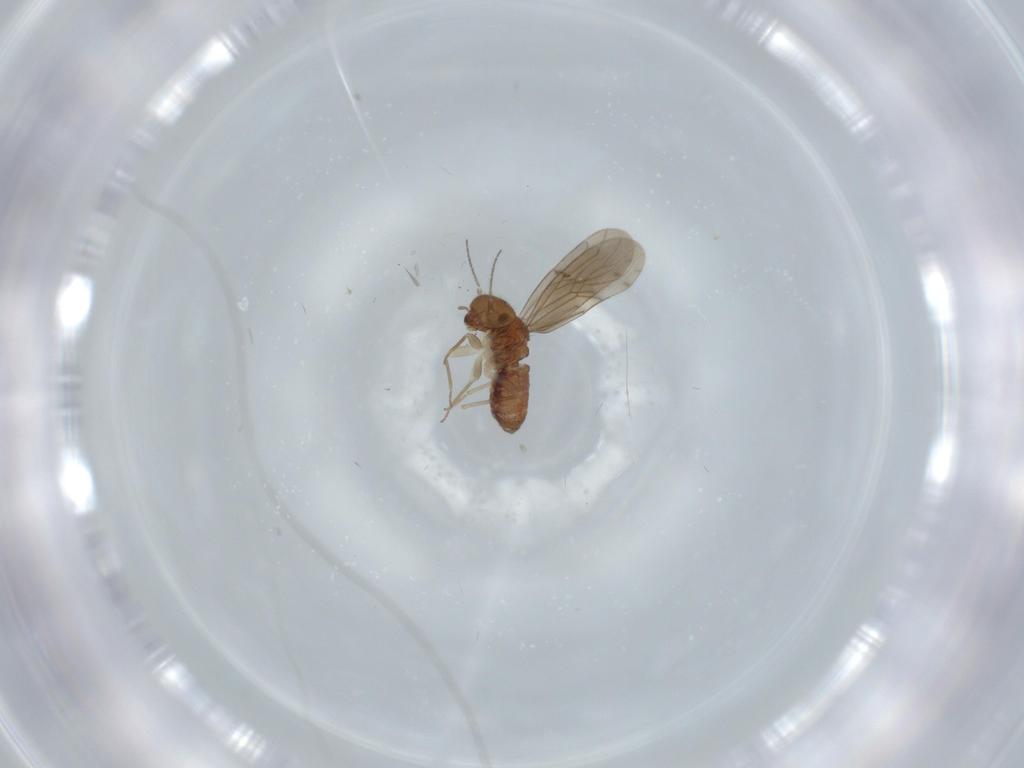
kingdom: Animalia
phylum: Arthropoda
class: Insecta
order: Psocodea
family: Ectopsocidae
